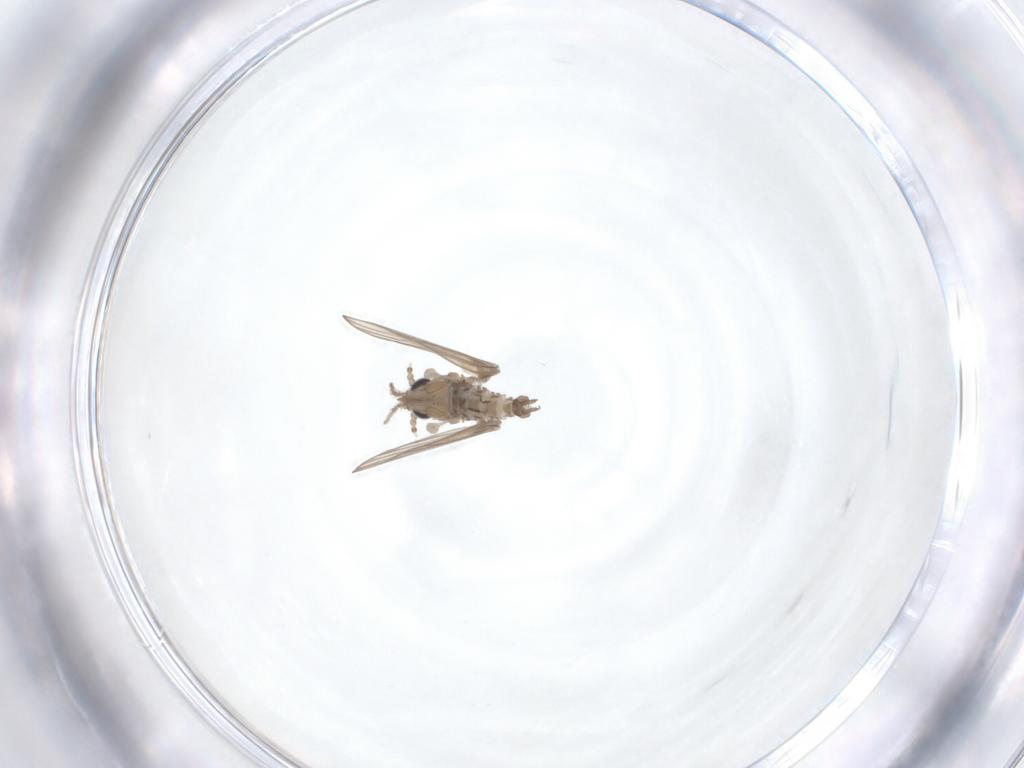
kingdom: Animalia
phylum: Arthropoda
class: Insecta
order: Diptera
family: Psychodidae
